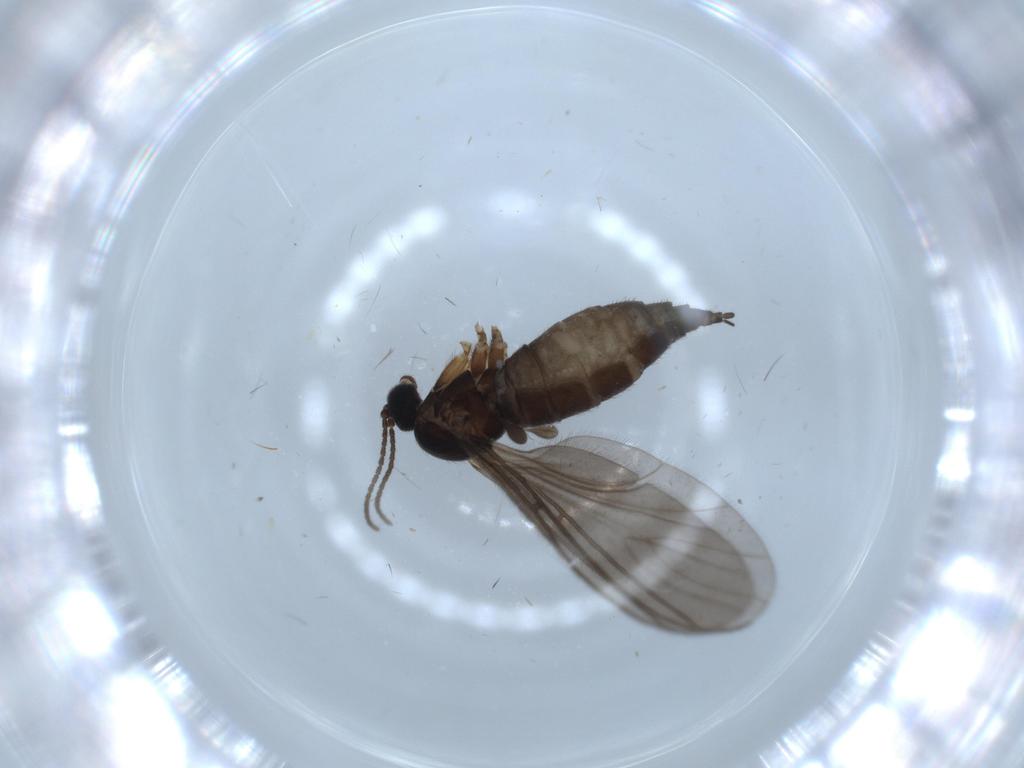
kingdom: Animalia
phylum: Arthropoda
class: Insecta
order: Diptera
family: Sciaridae
